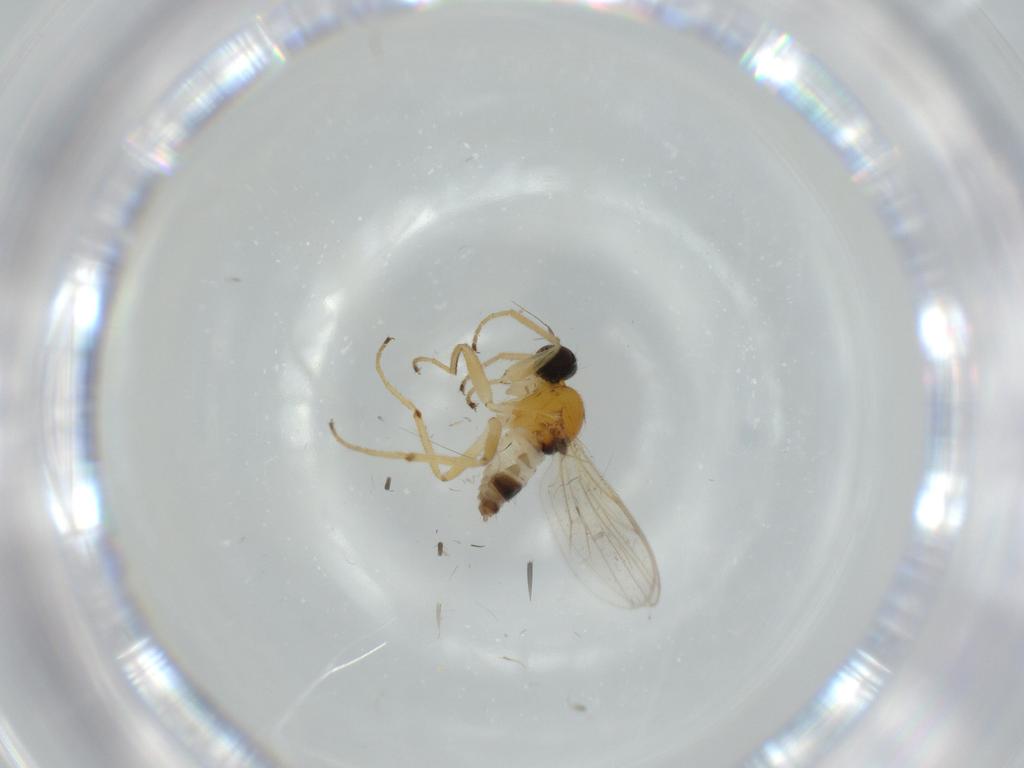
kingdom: Animalia
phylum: Arthropoda
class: Insecta
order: Diptera
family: Hybotidae
